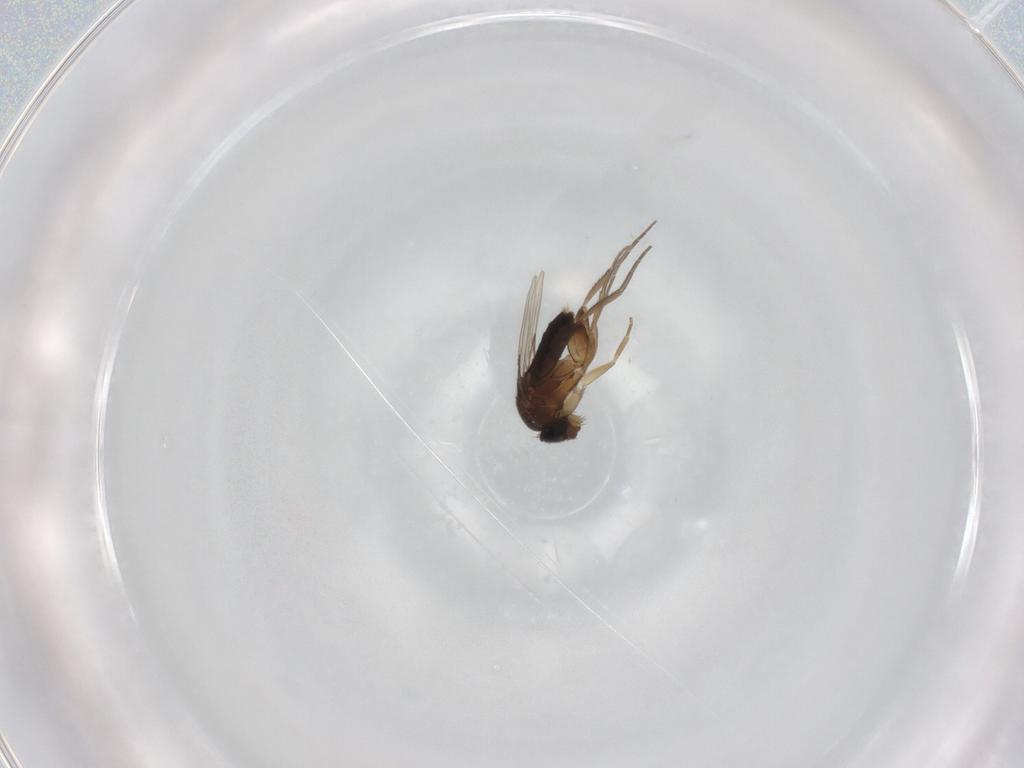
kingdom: Animalia
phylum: Arthropoda
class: Insecta
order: Diptera
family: Phoridae
